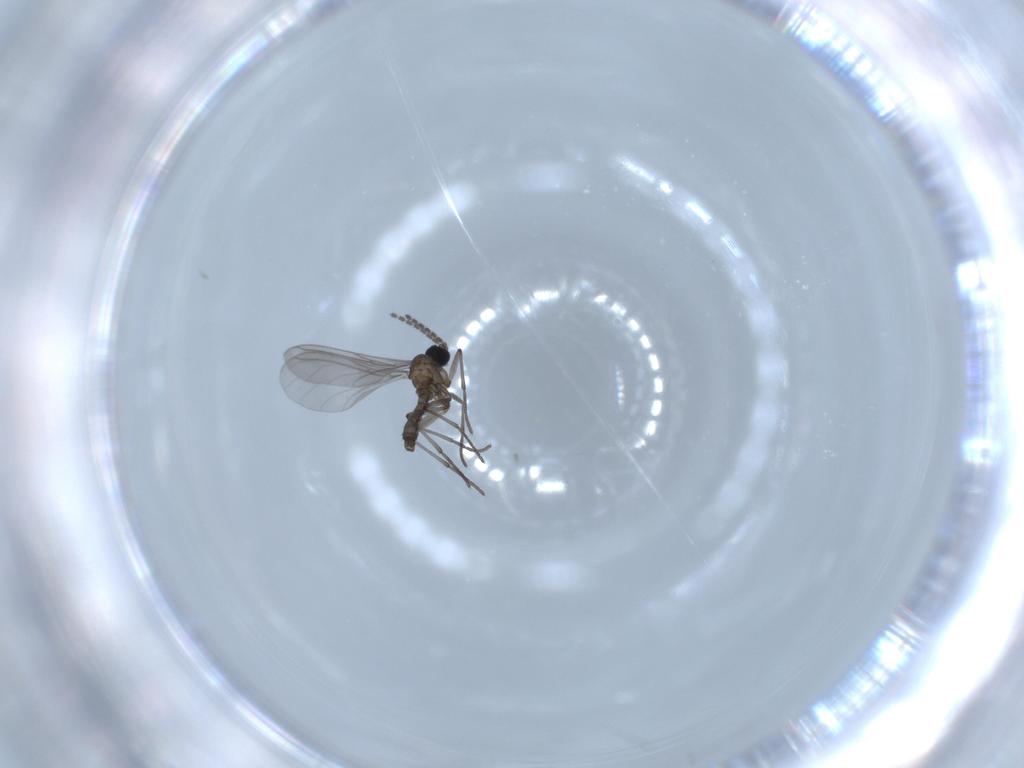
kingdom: Animalia
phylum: Arthropoda
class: Insecta
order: Diptera
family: Sciaridae
